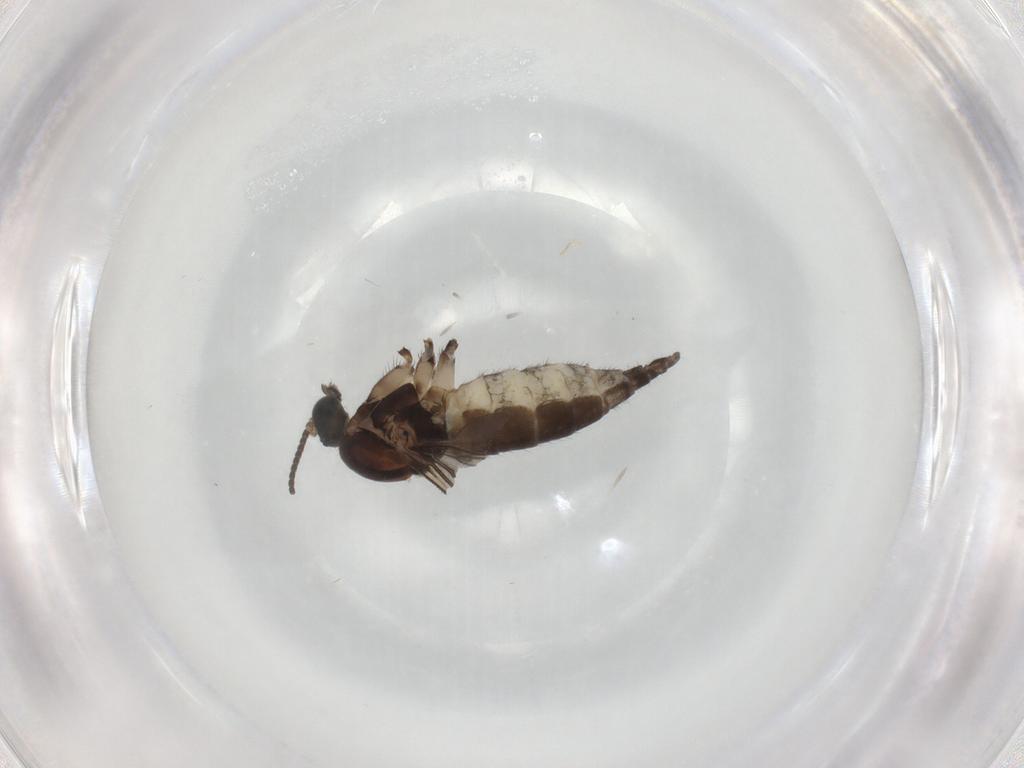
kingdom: Animalia
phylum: Arthropoda
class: Insecta
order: Diptera
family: Sciaridae
